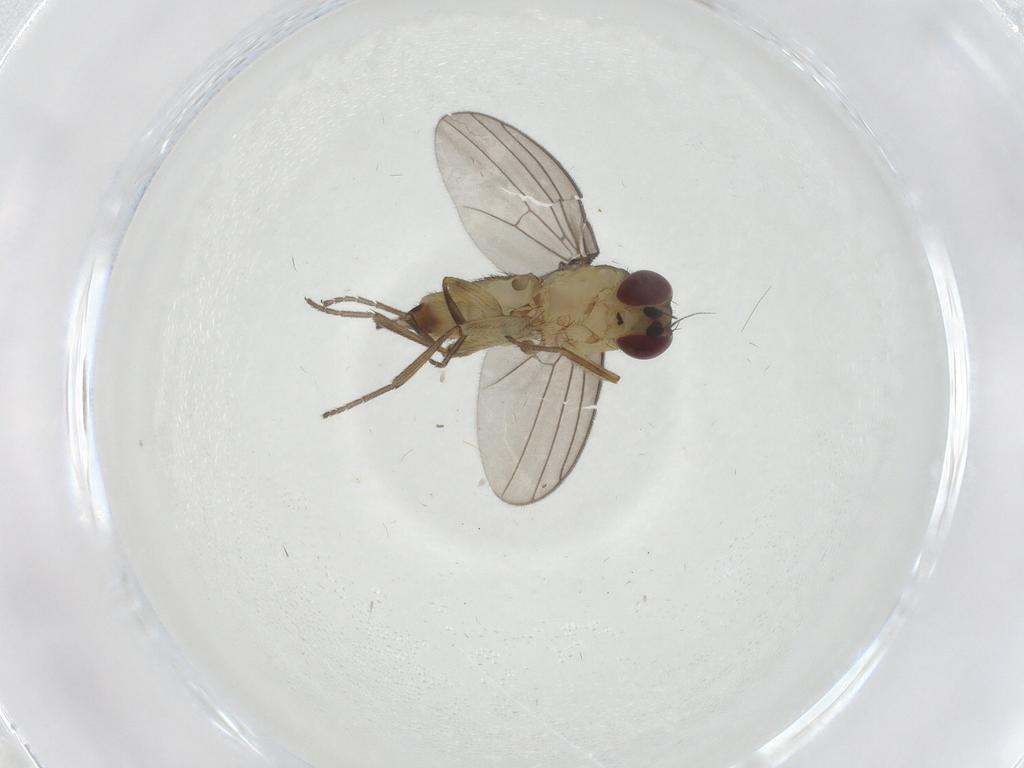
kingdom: Animalia
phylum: Arthropoda
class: Insecta
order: Diptera
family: Agromyzidae
